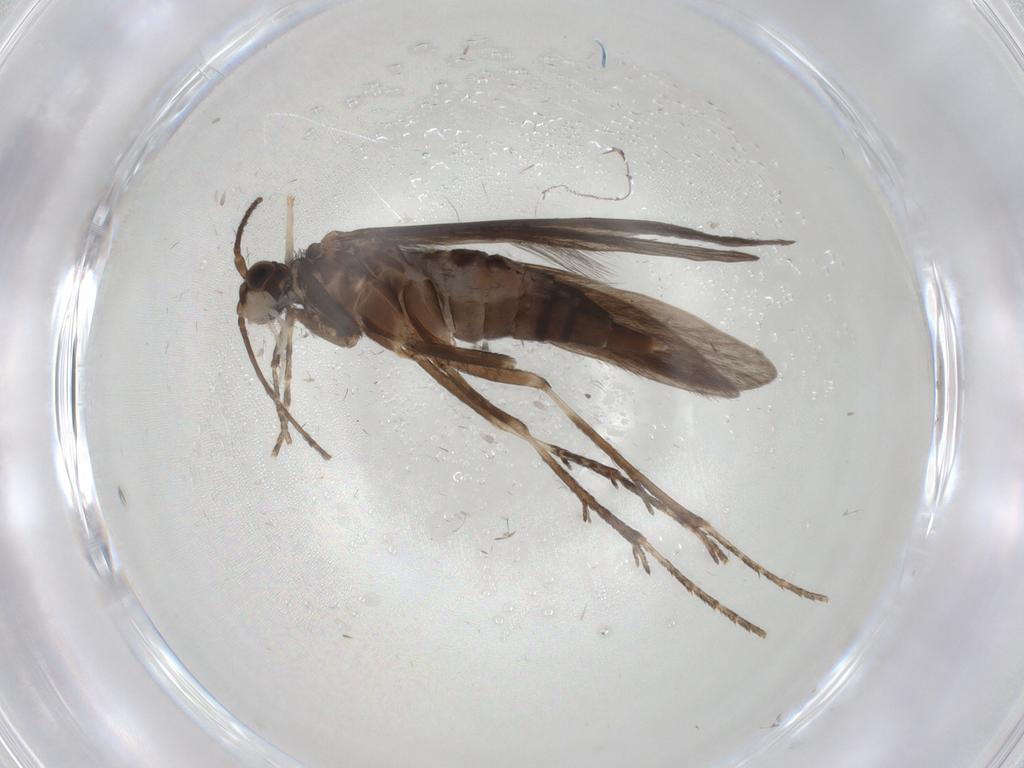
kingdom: Animalia
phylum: Arthropoda
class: Insecta
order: Trichoptera
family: Xiphocentronidae
